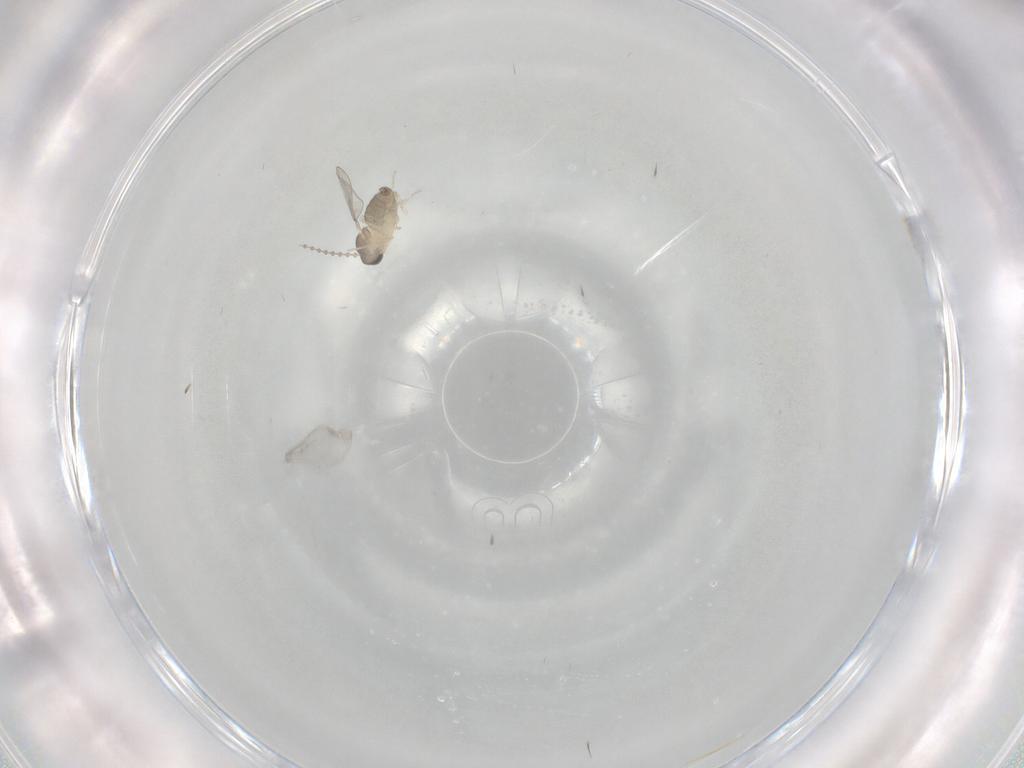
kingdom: Animalia
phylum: Arthropoda
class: Insecta
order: Diptera
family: Cecidomyiidae
